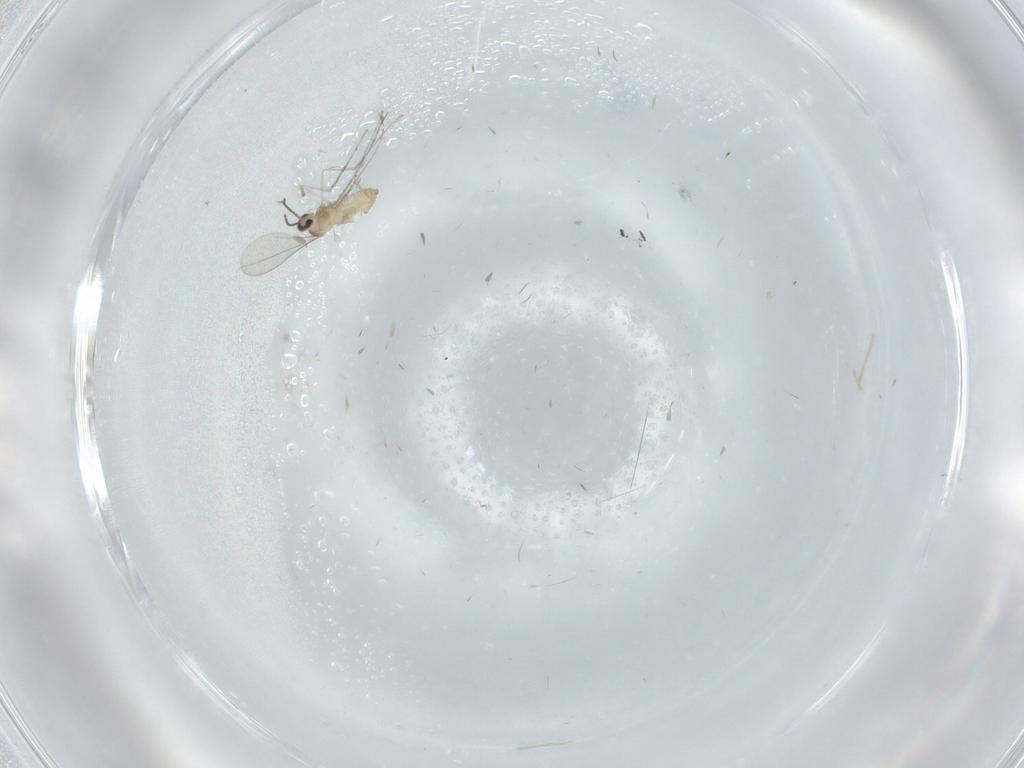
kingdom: Animalia
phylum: Arthropoda
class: Insecta
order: Diptera
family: Cecidomyiidae
